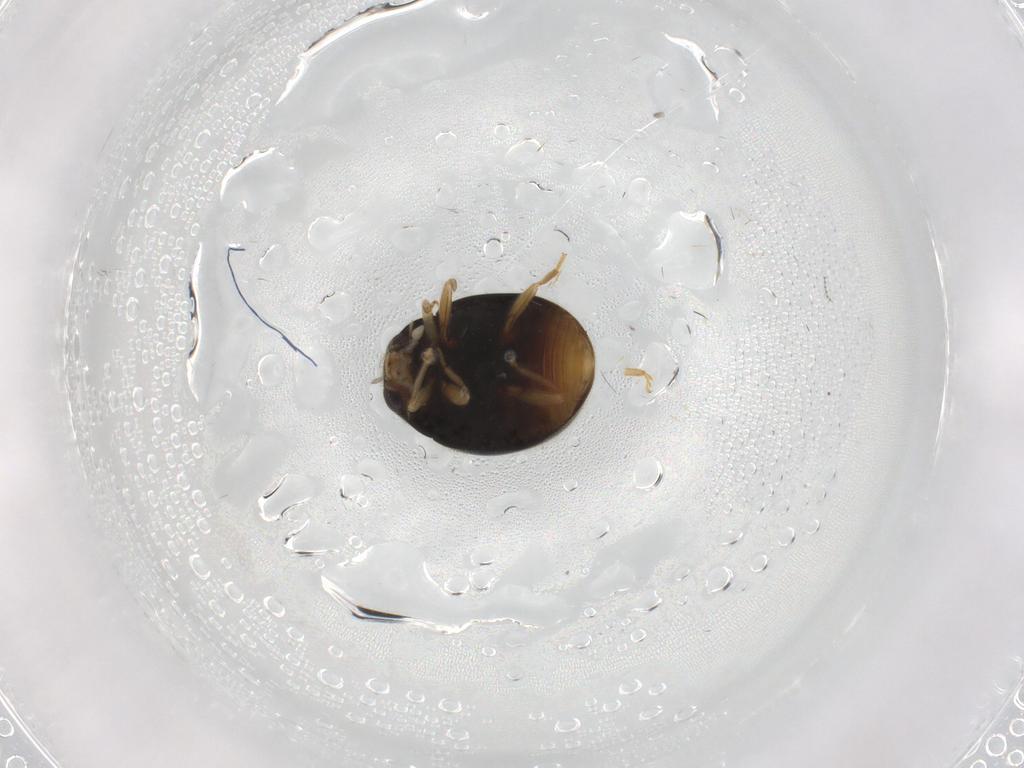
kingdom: Animalia
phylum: Arthropoda
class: Insecta
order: Coleoptera
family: Coccinellidae
